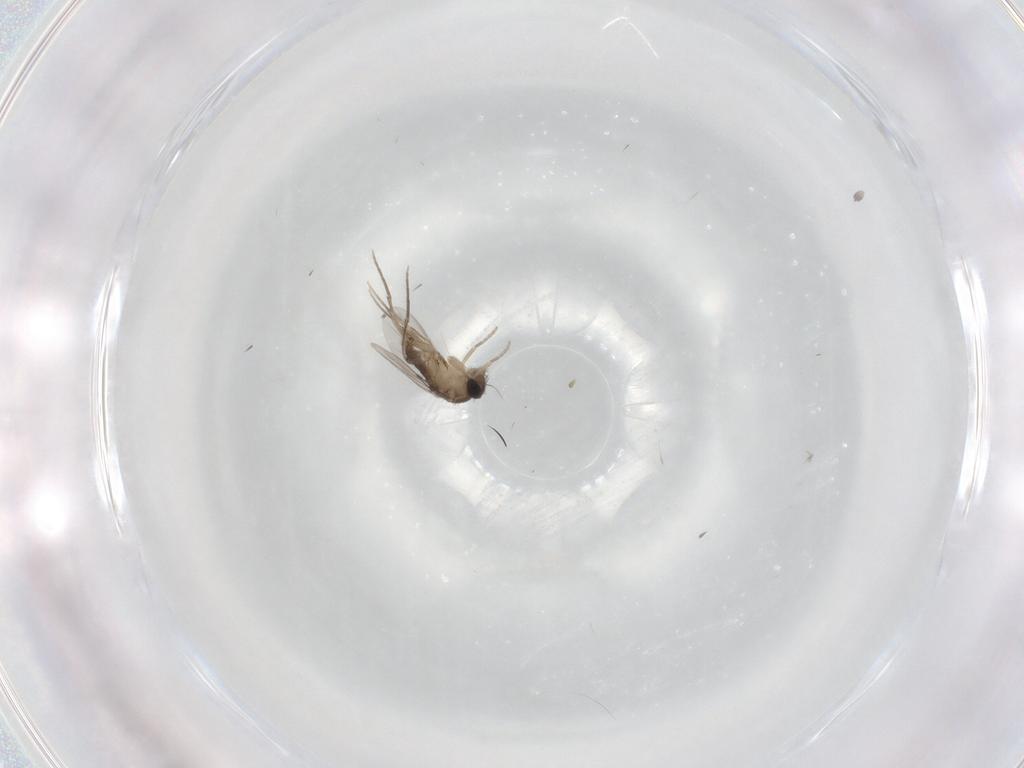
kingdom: Animalia
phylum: Arthropoda
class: Insecta
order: Diptera
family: Phoridae
